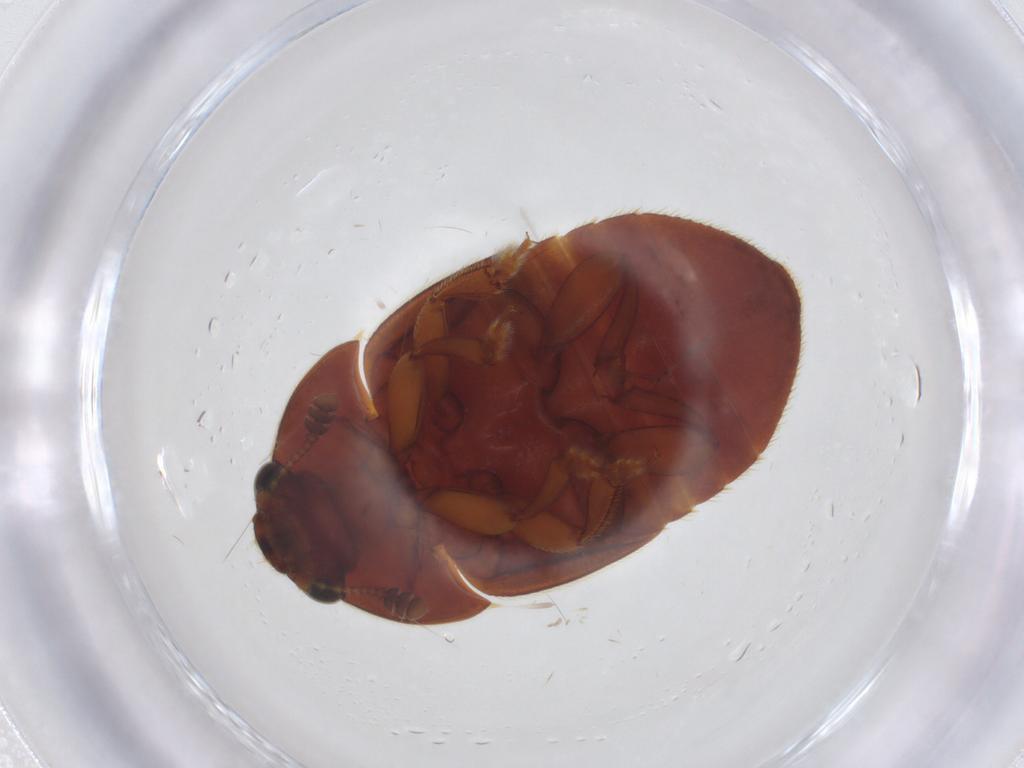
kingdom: Animalia
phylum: Arthropoda
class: Insecta
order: Coleoptera
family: Nitidulidae
